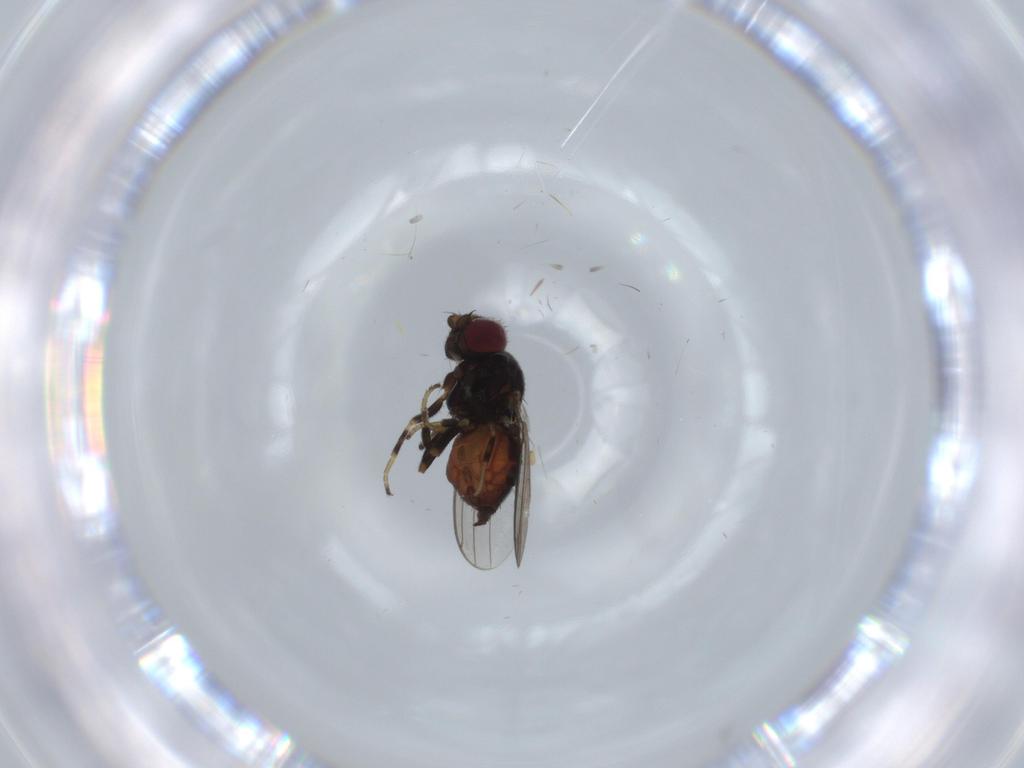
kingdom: Animalia
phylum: Arthropoda
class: Insecta
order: Diptera
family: Chloropidae
